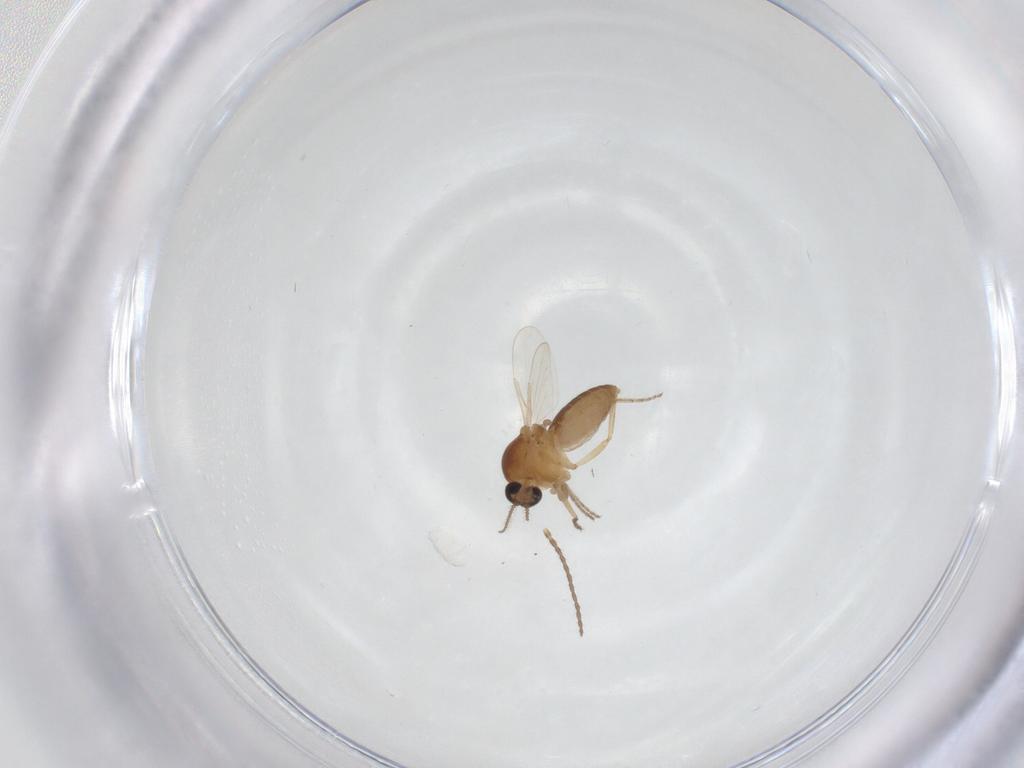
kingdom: Animalia
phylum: Arthropoda
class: Insecta
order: Diptera
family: Ceratopogonidae
